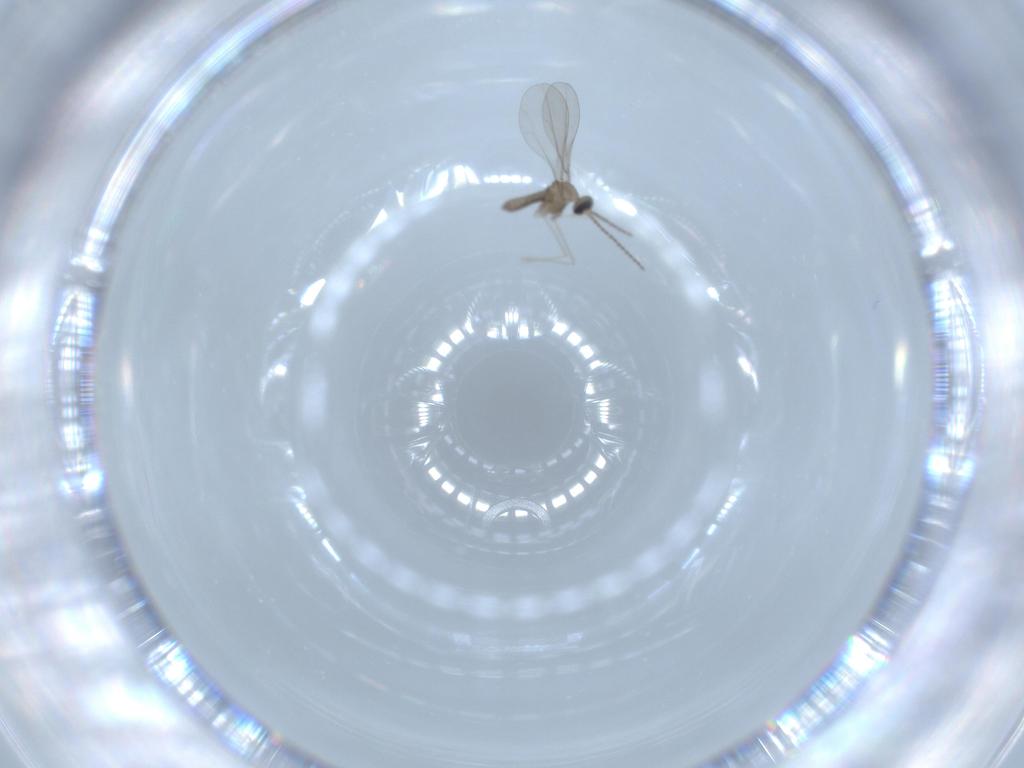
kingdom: Animalia
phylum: Arthropoda
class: Insecta
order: Diptera
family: Cecidomyiidae
